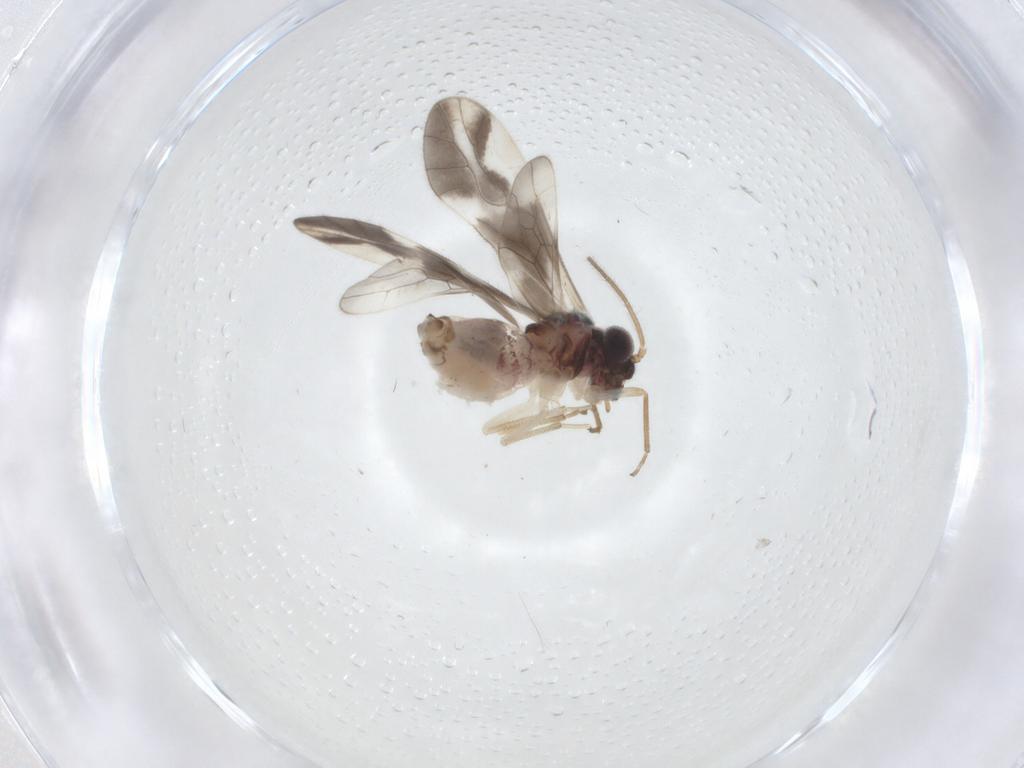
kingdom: Animalia
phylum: Arthropoda
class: Insecta
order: Psocodea
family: Caeciliusidae
